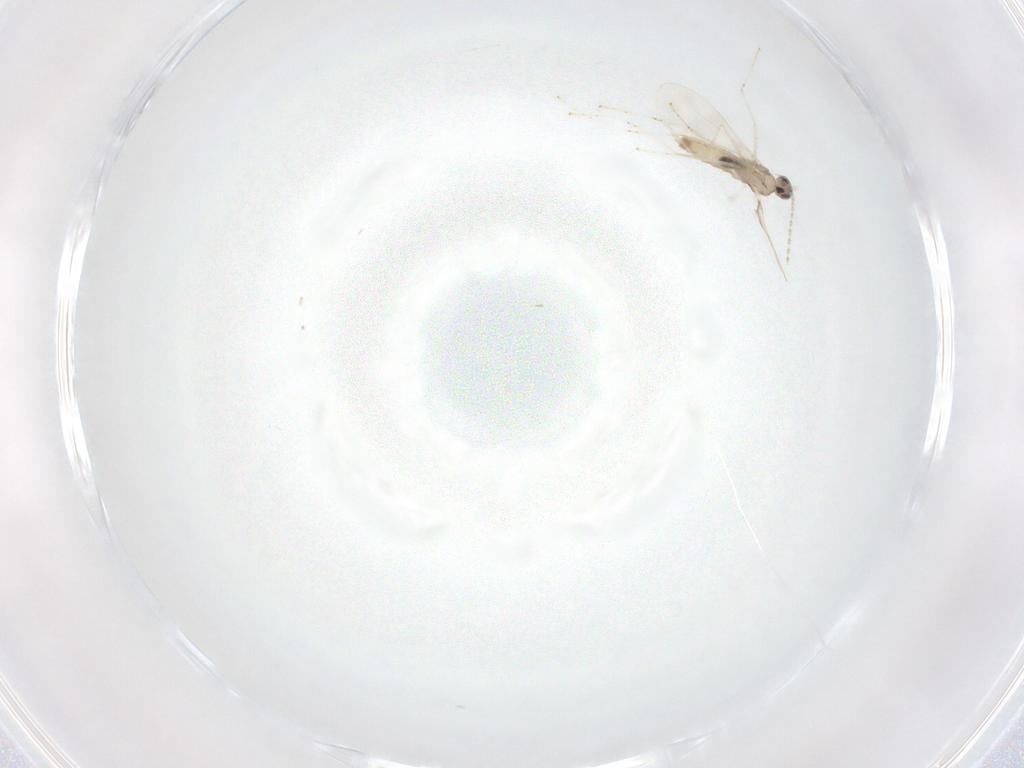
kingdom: Animalia
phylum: Arthropoda
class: Insecta
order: Diptera
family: Cecidomyiidae
